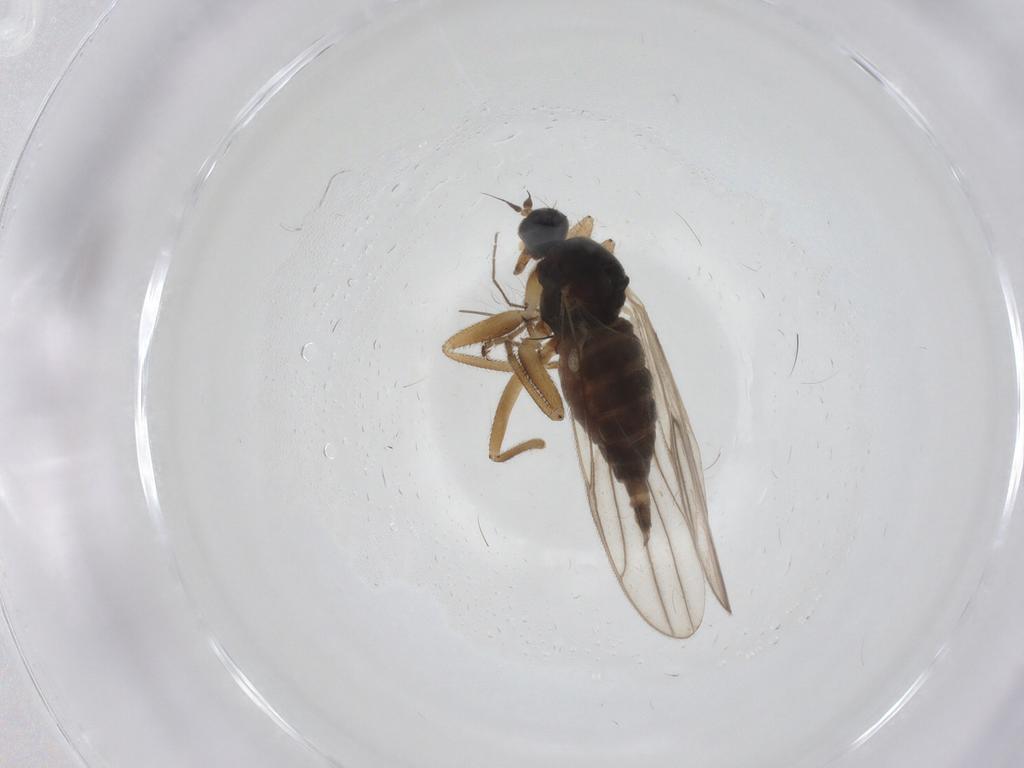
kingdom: Animalia
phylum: Arthropoda
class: Insecta
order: Diptera
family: Hybotidae
